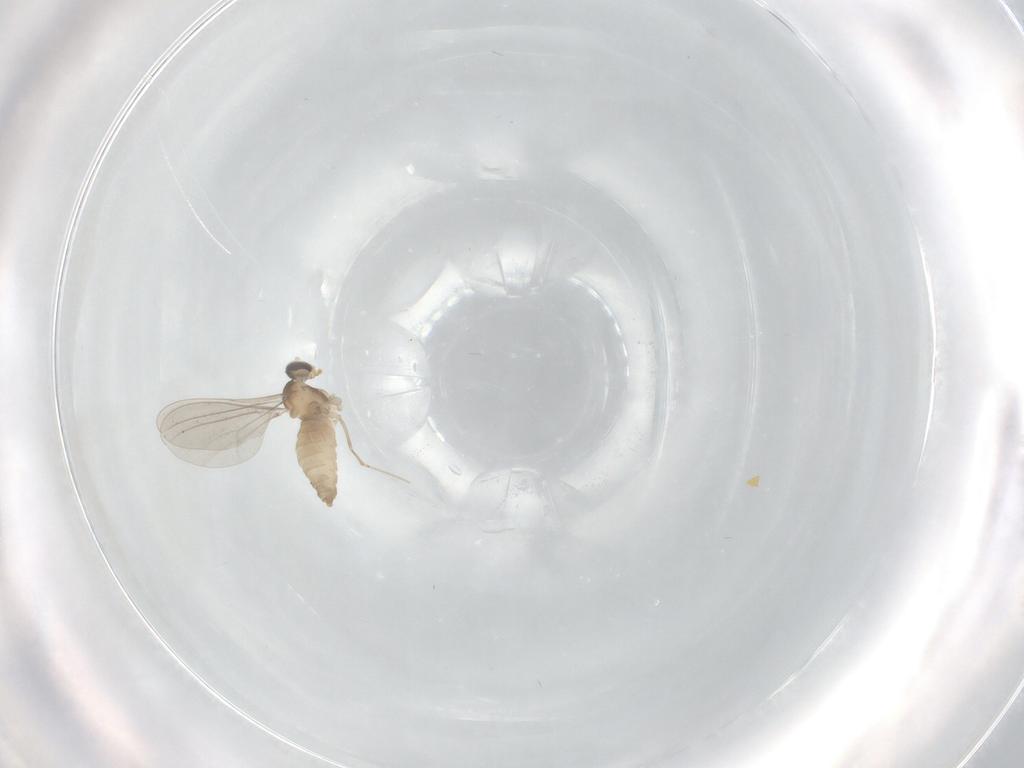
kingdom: Animalia
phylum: Arthropoda
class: Insecta
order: Diptera
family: Cecidomyiidae
